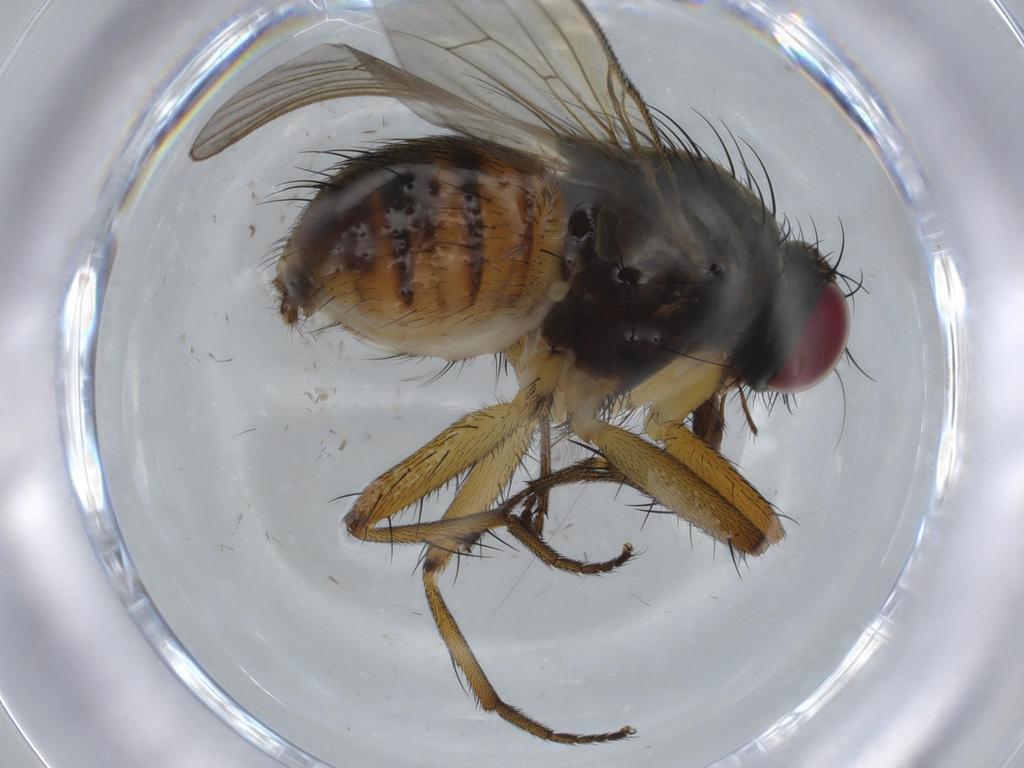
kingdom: Animalia
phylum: Arthropoda
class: Insecta
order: Diptera
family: Muscidae
